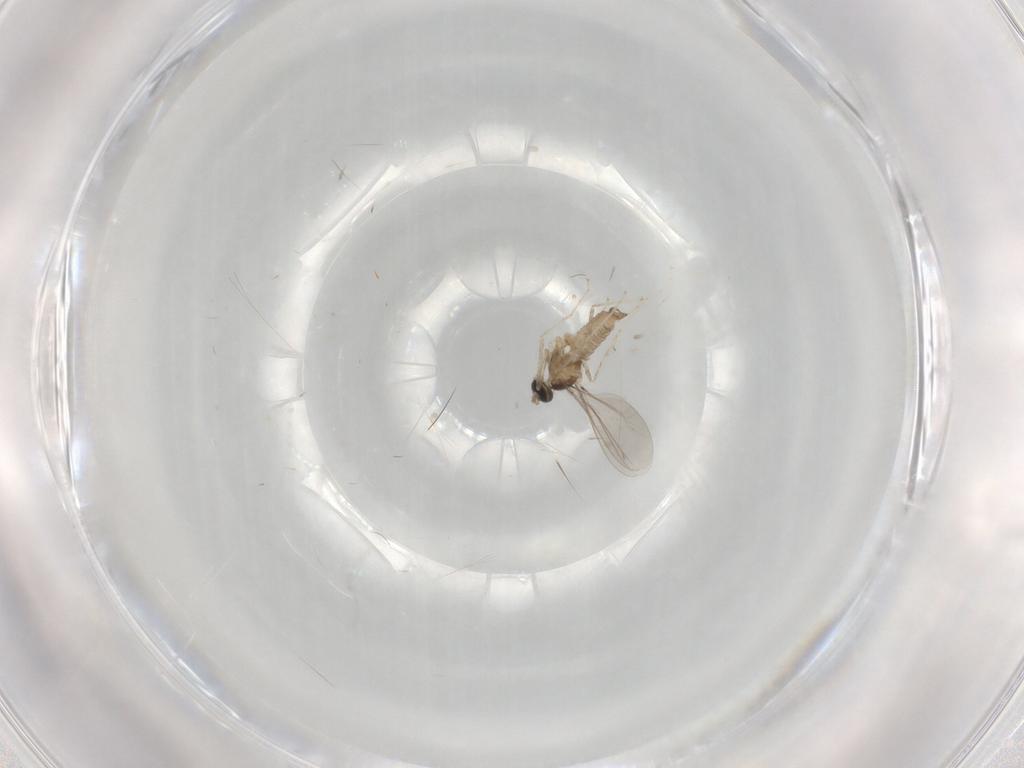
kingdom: Animalia
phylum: Arthropoda
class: Insecta
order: Diptera
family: Cecidomyiidae
